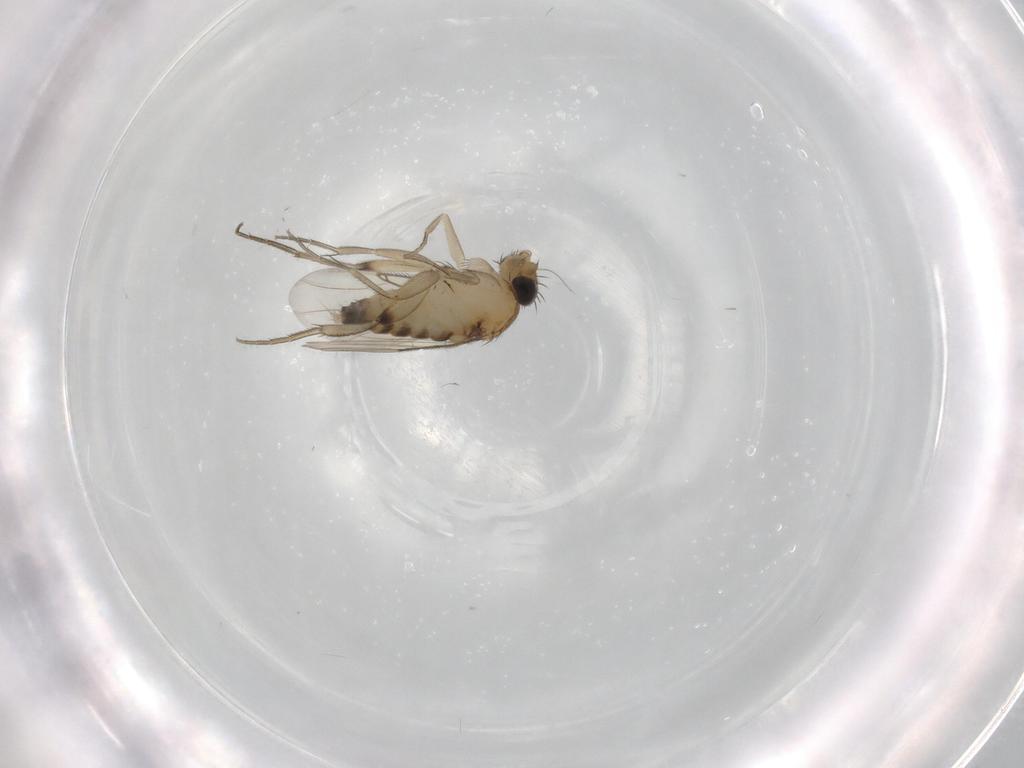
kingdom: Animalia
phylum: Arthropoda
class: Insecta
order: Diptera
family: Phoridae
